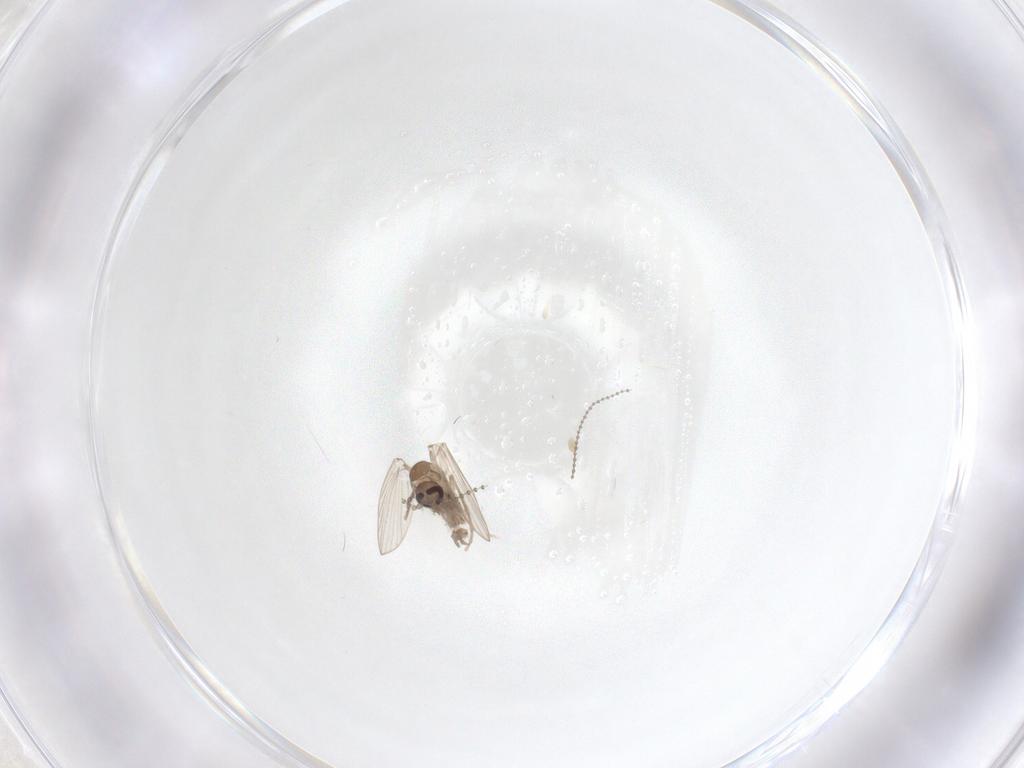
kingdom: Animalia
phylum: Arthropoda
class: Insecta
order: Diptera
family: Psychodidae
